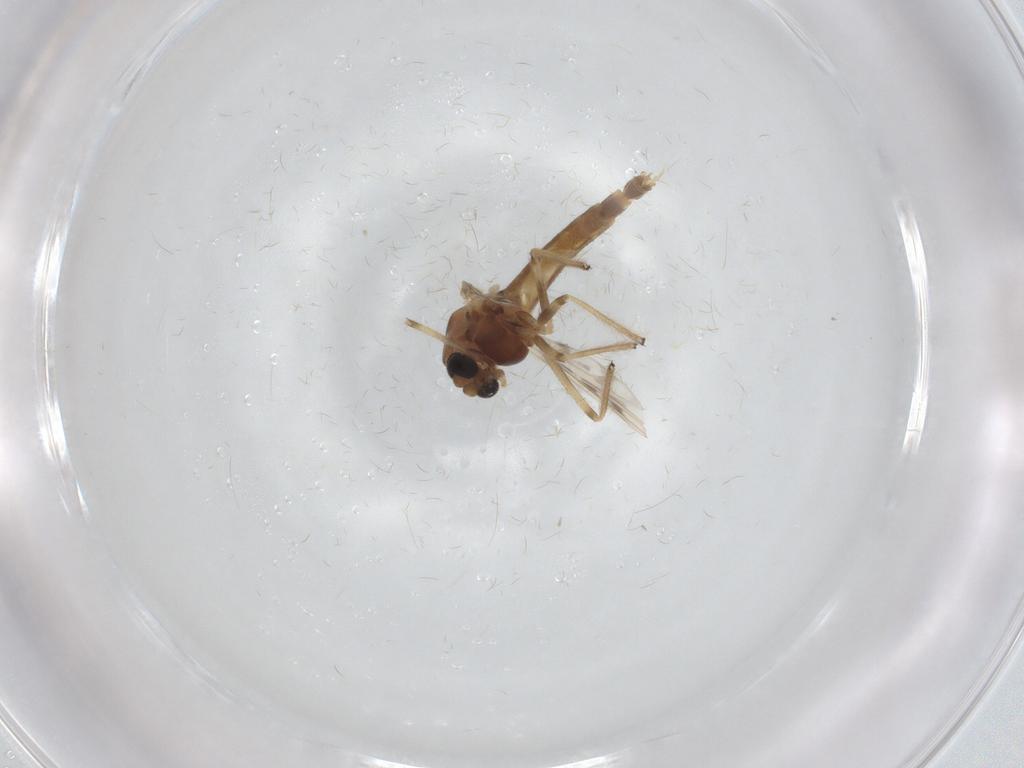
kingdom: Animalia
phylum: Arthropoda
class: Insecta
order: Diptera
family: Chironomidae
